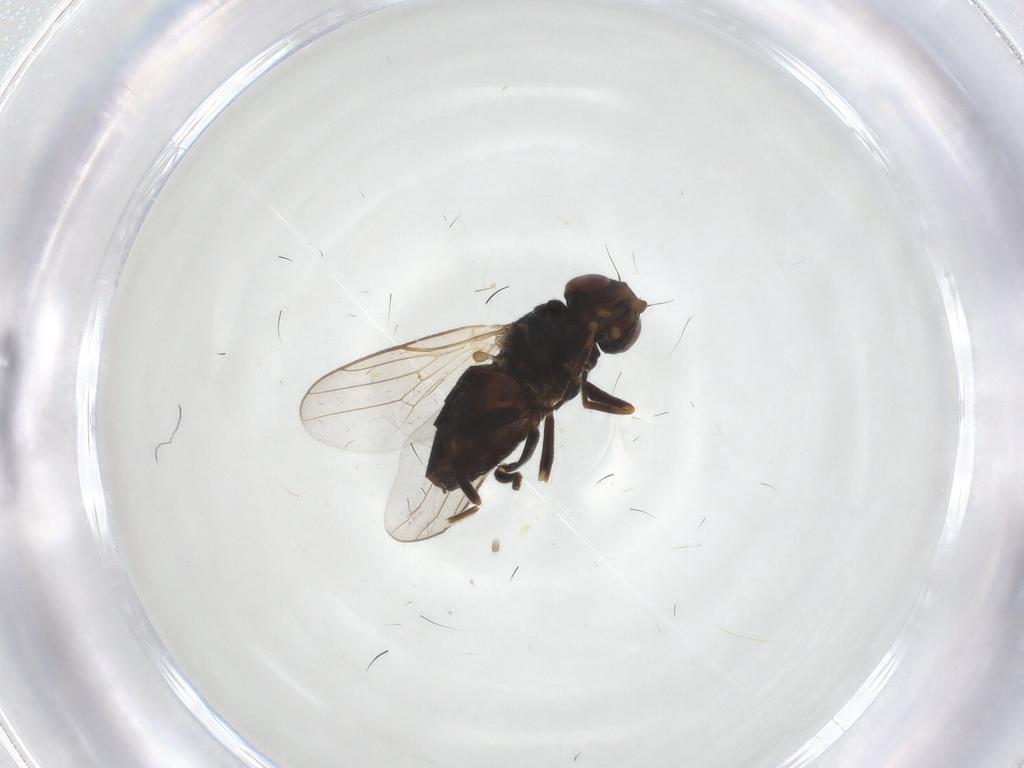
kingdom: Animalia
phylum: Arthropoda
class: Insecta
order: Diptera
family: Chloropidae
